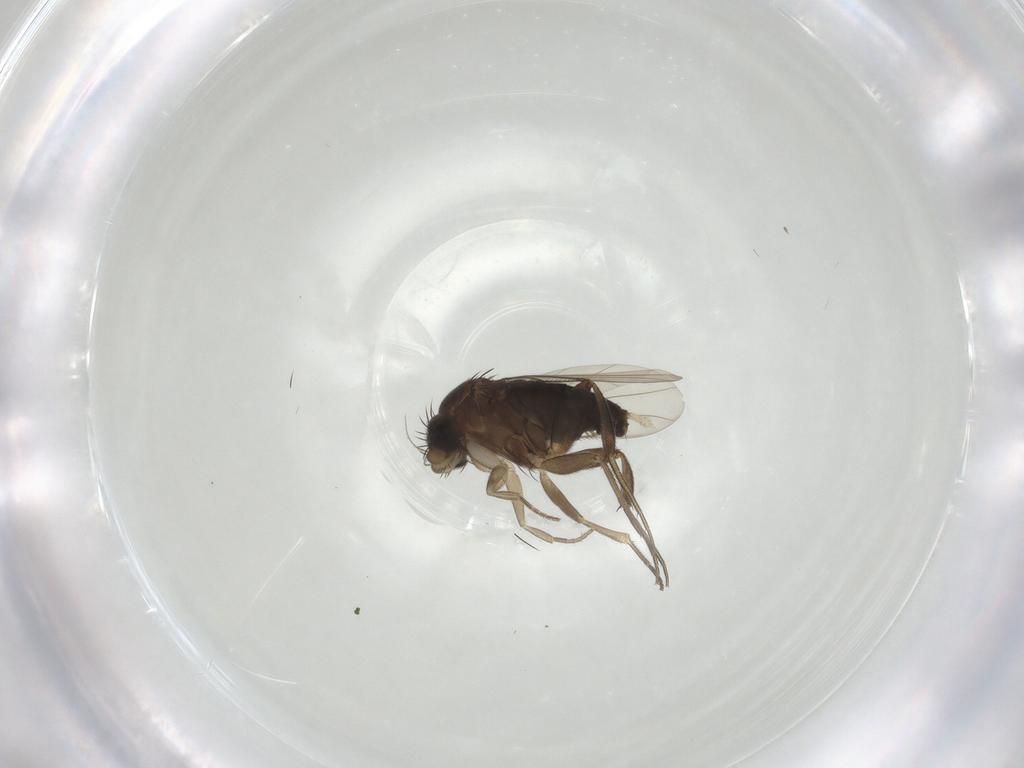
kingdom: Animalia
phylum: Arthropoda
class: Insecta
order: Diptera
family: Phoridae
